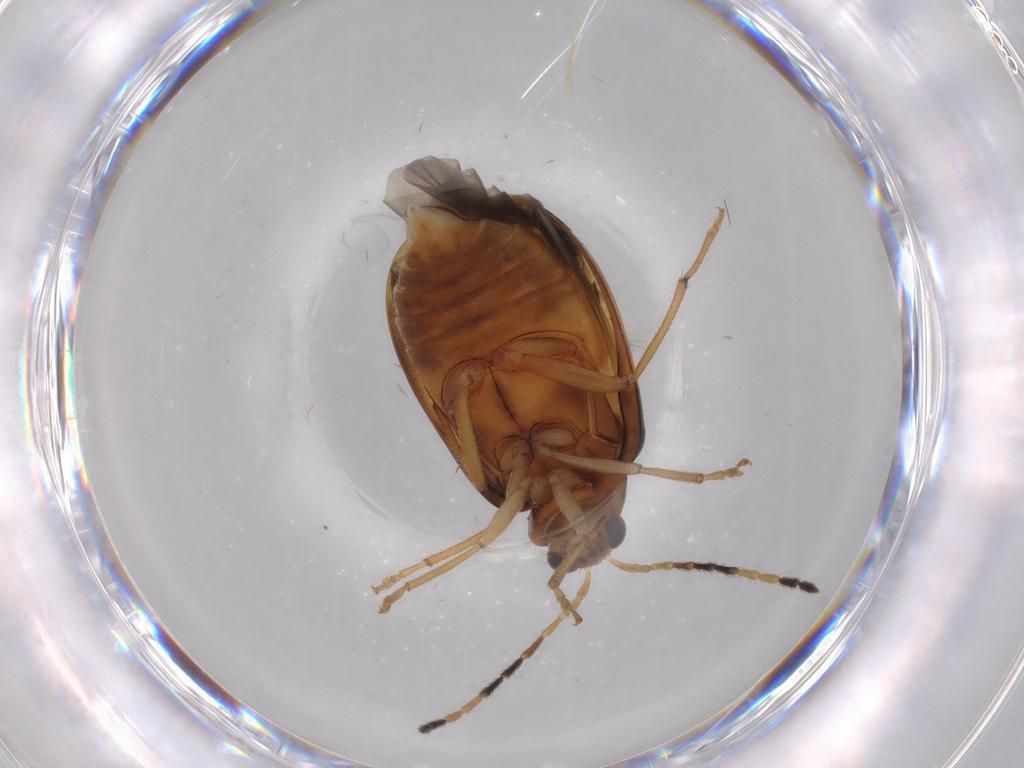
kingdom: Animalia
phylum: Arthropoda
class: Insecta
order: Coleoptera
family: Chrysomelidae
